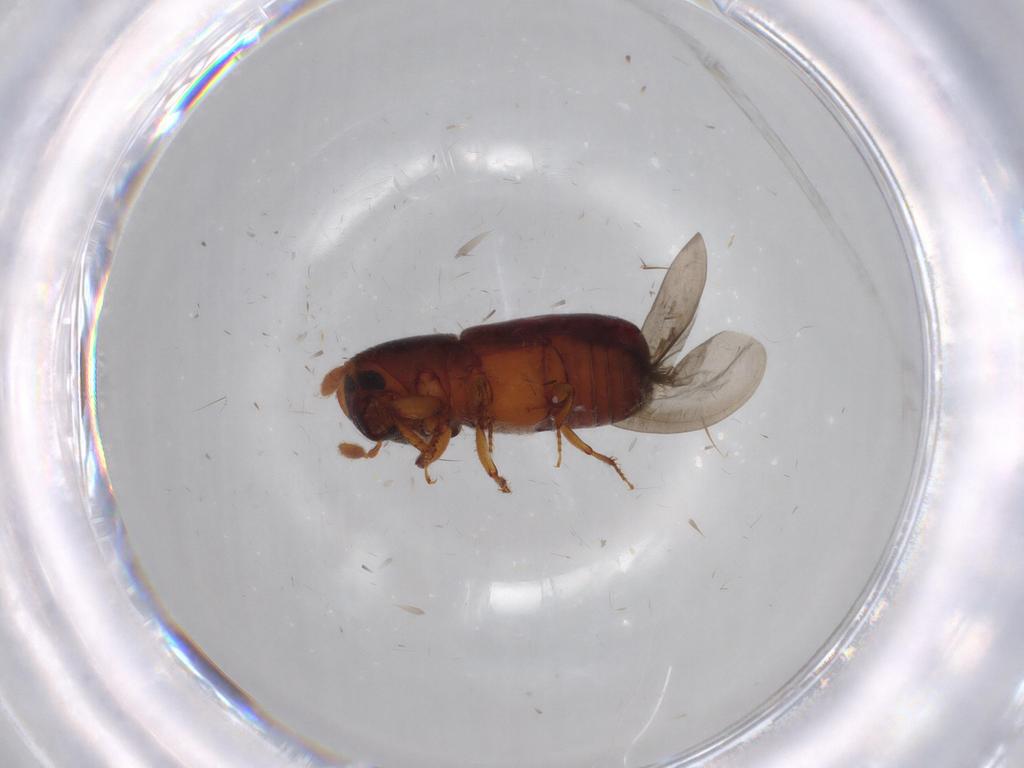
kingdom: Animalia
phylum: Arthropoda
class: Insecta
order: Coleoptera
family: Curculionidae
